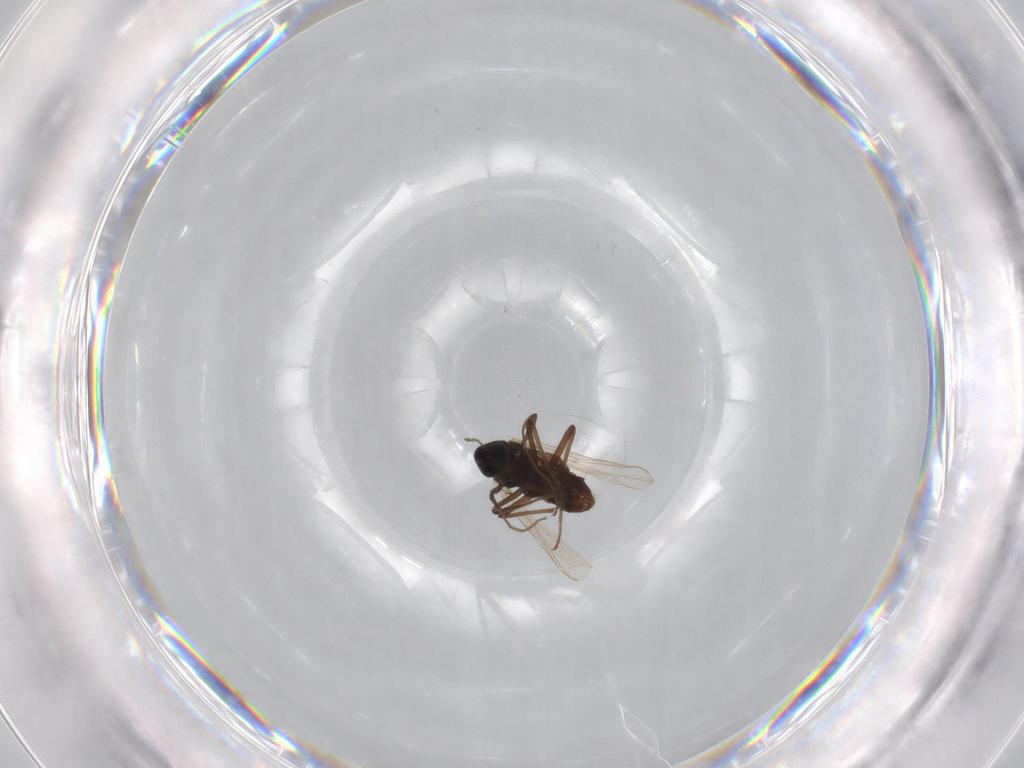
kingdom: Animalia
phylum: Arthropoda
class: Insecta
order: Diptera
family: Chironomidae
